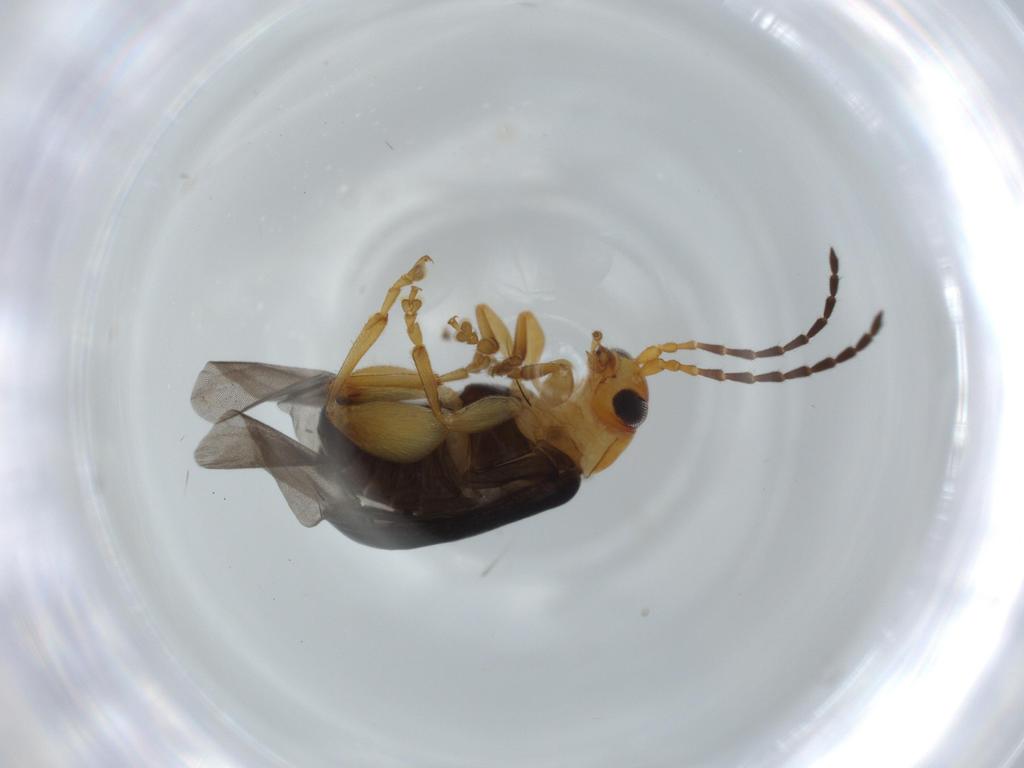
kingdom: Animalia
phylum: Arthropoda
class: Insecta
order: Coleoptera
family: Chrysomelidae
